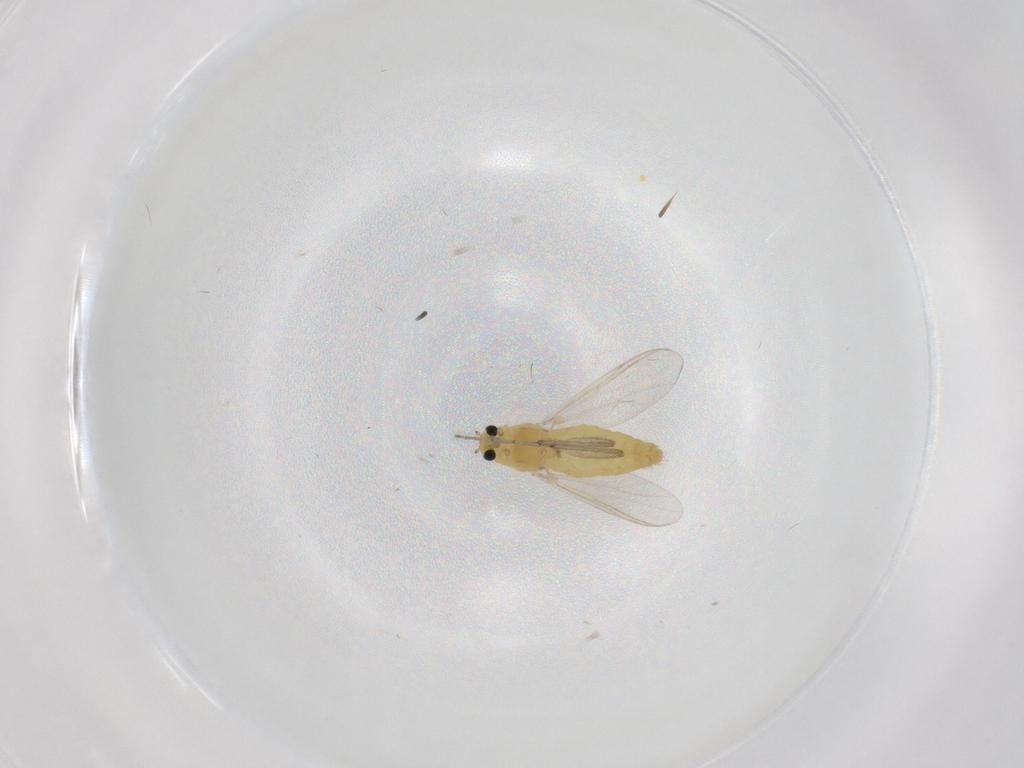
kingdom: Animalia
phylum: Arthropoda
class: Insecta
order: Diptera
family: Chironomidae
